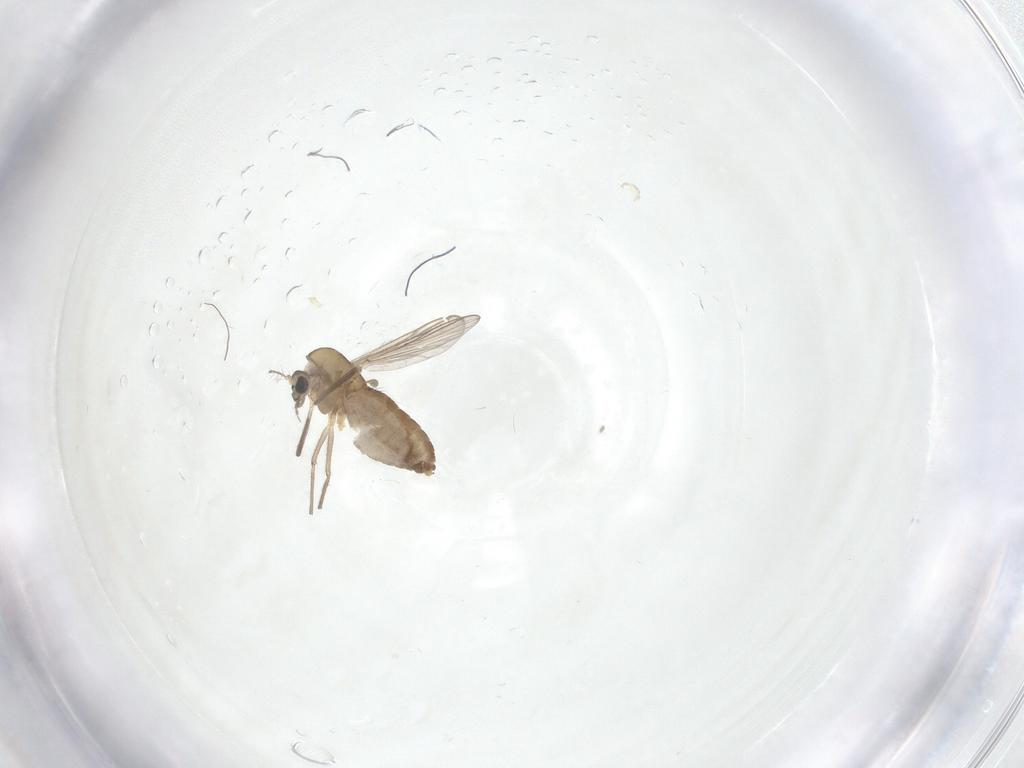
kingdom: Animalia
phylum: Arthropoda
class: Insecta
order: Diptera
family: Chironomidae
